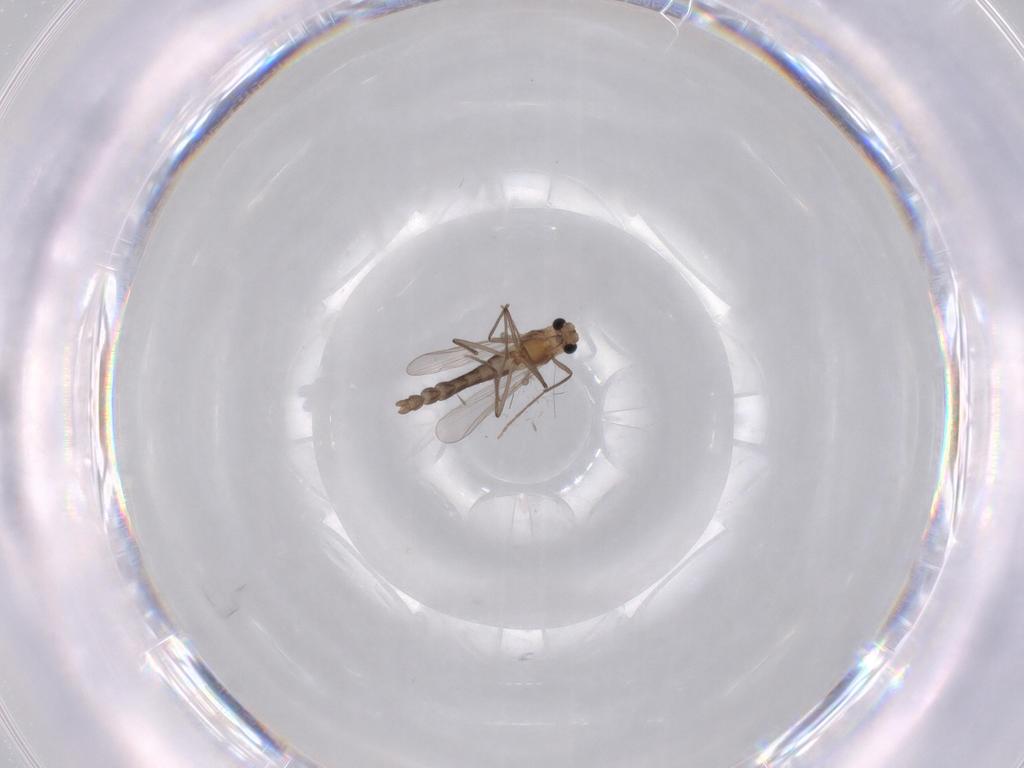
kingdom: Animalia
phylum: Arthropoda
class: Insecta
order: Diptera
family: Chironomidae
